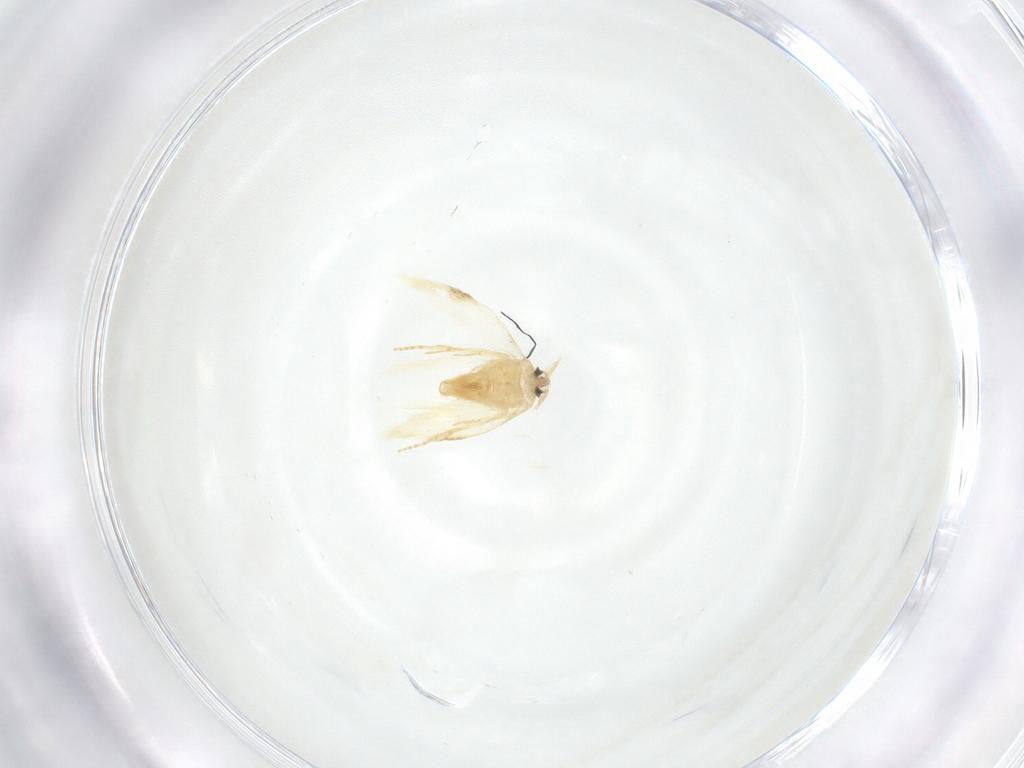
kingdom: Animalia
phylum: Arthropoda
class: Insecta
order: Lepidoptera
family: Nepticulidae
